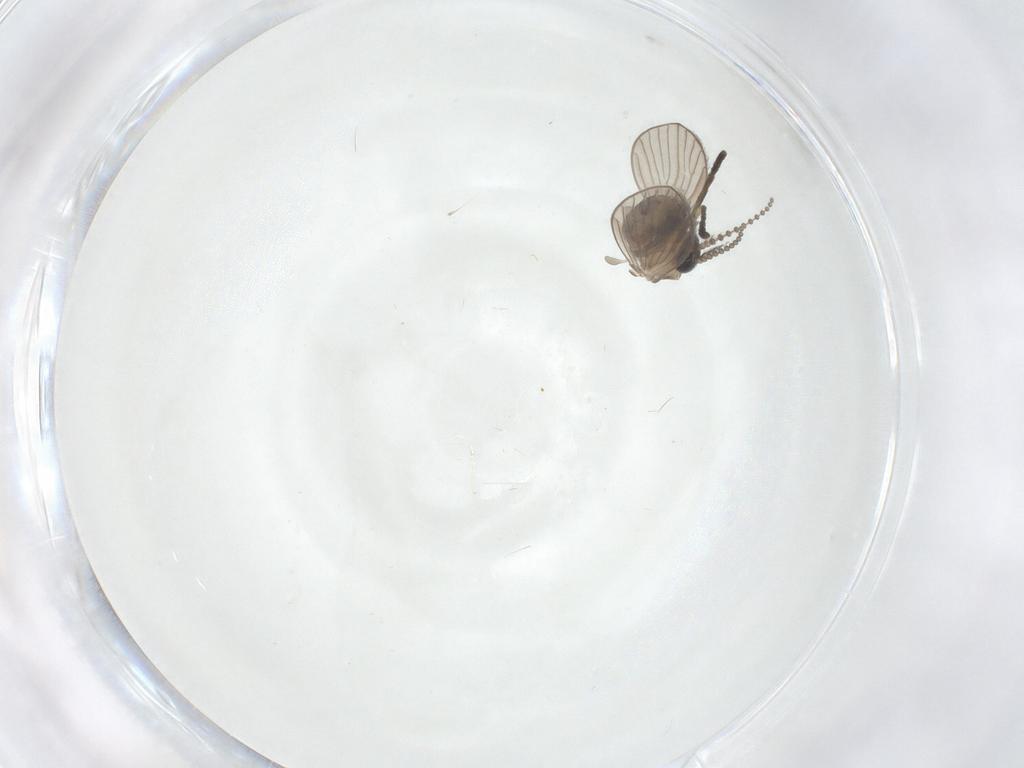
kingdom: Animalia
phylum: Arthropoda
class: Insecta
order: Diptera
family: Psychodidae
